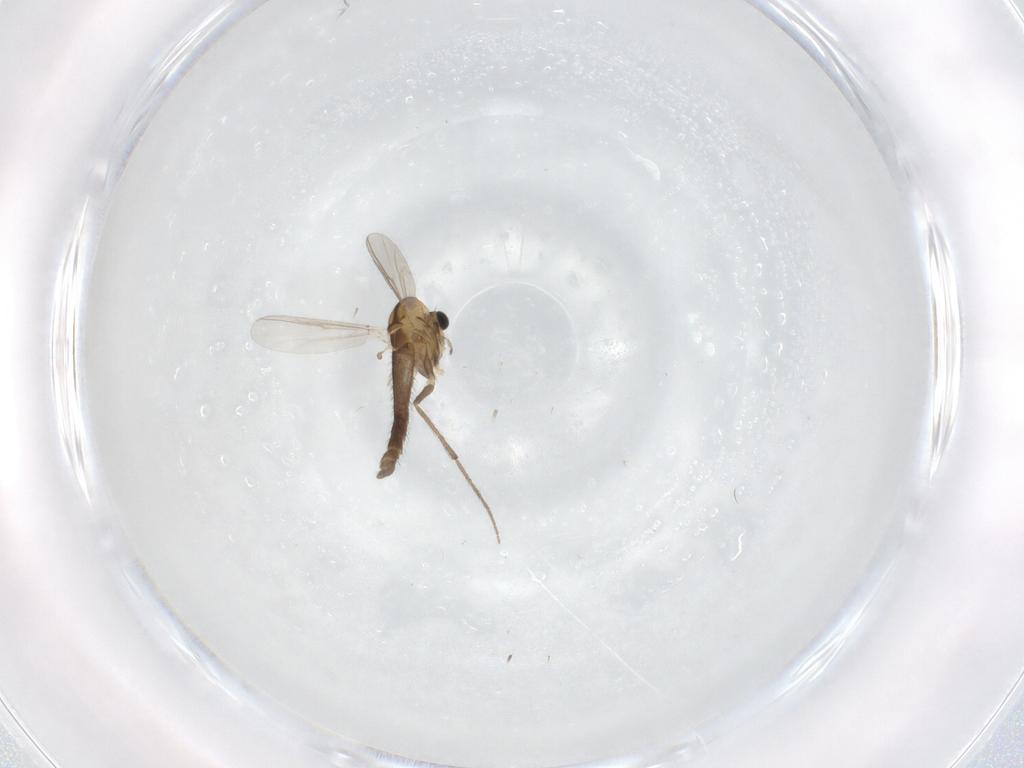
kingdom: Animalia
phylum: Arthropoda
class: Insecta
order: Diptera
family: Chironomidae
